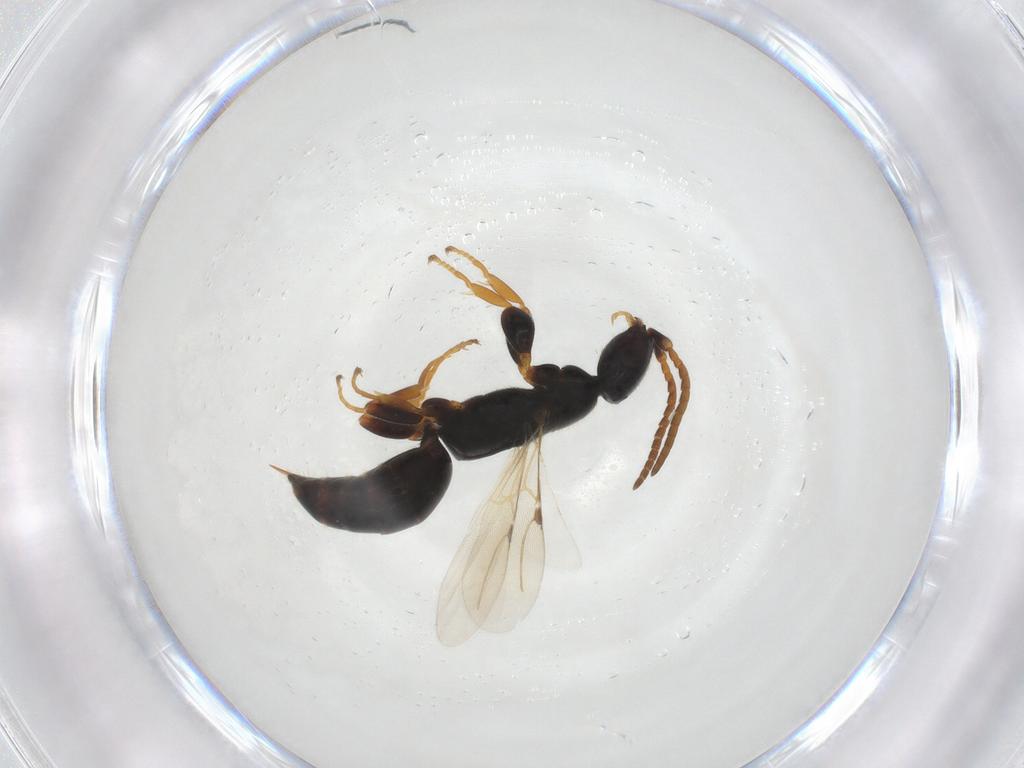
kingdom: Animalia
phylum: Arthropoda
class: Insecta
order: Hymenoptera
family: Bethylidae
